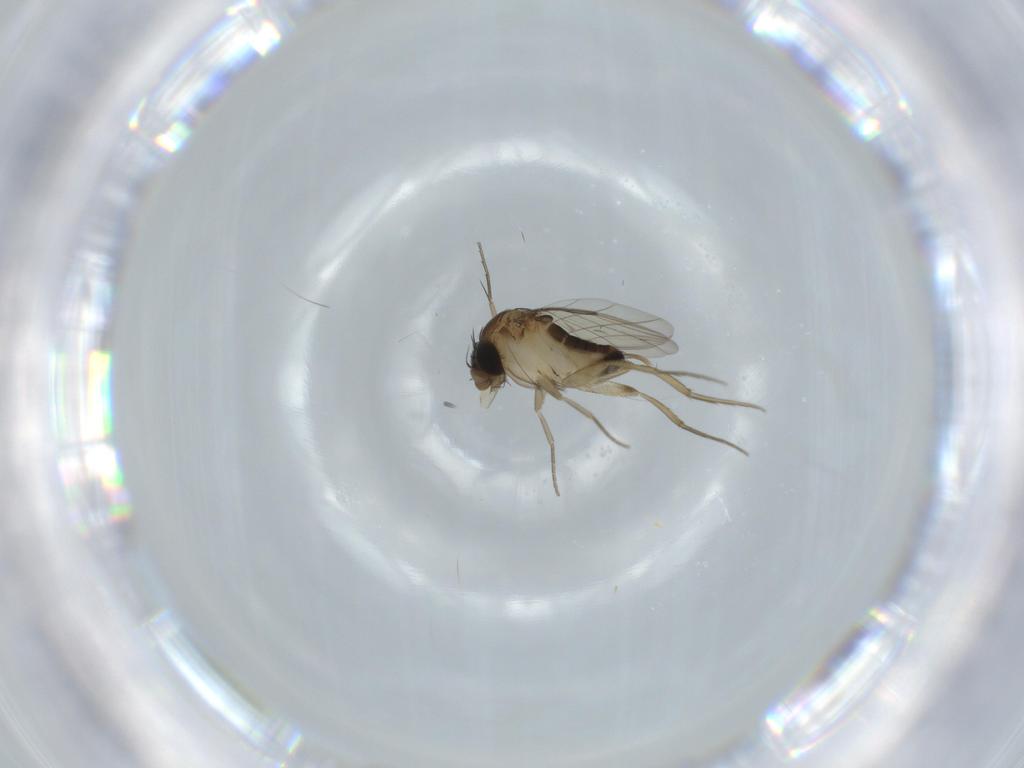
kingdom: Animalia
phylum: Arthropoda
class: Insecta
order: Diptera
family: Phoridae
